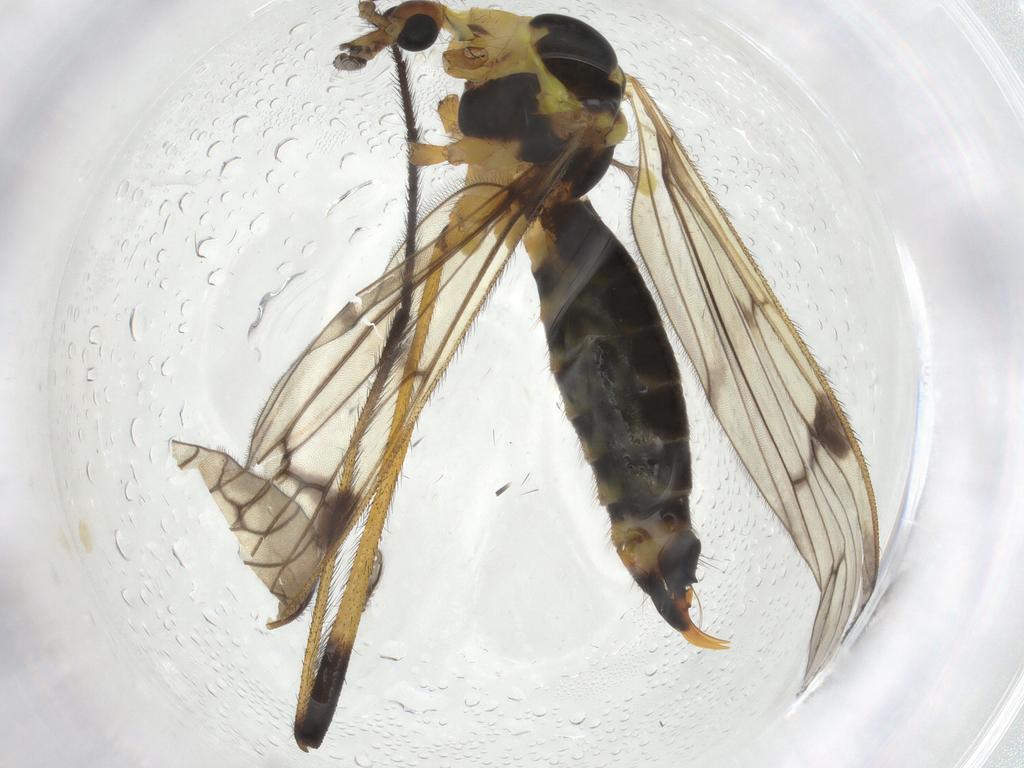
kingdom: Animalia
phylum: Arthropoda
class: Insecta
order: Diptera
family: Limoniidae
